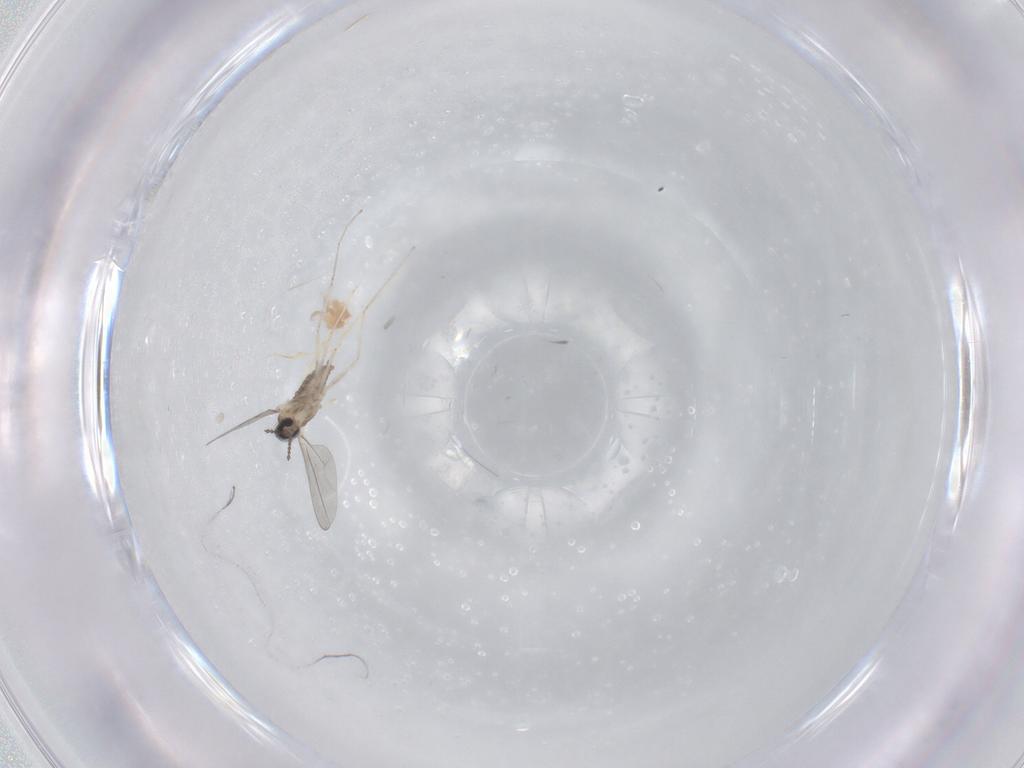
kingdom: Animalia
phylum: Arthropoda
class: Insecta
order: Diptera
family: Cecidomyiidae
